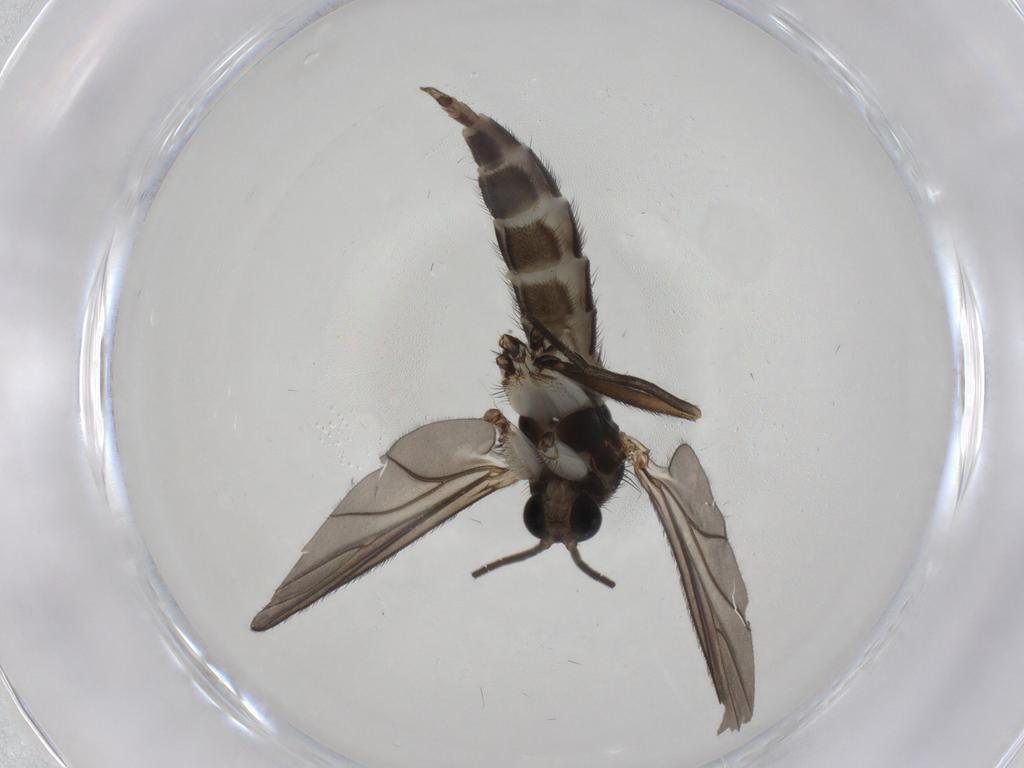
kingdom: Animalia
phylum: Arthropoda
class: Insecta
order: Diptera
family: Sciaridae
